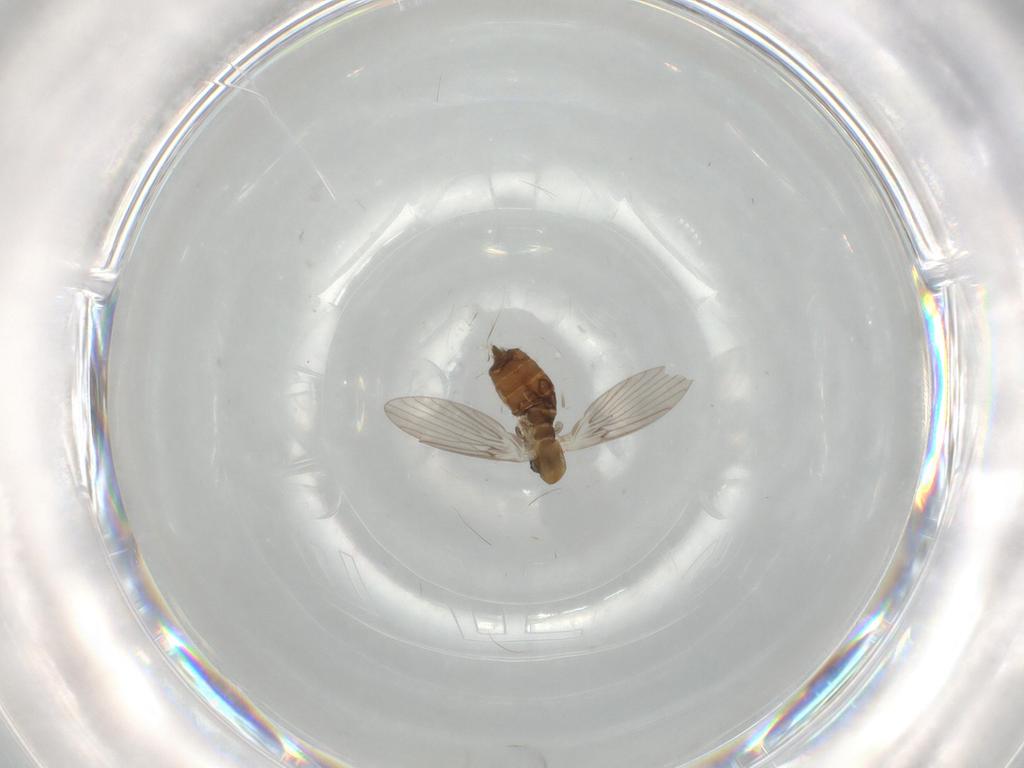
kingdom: Animalia
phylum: Arthropoda
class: Insecta
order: Diptera
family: Psychodidae
